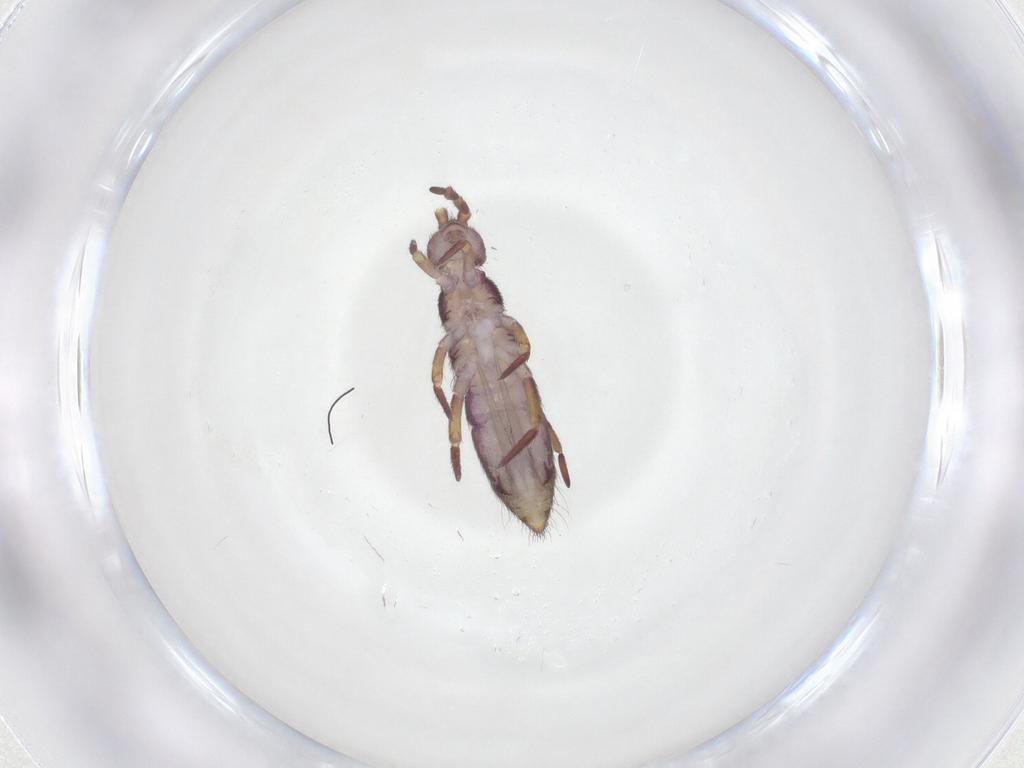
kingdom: Animalia
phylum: Arthropoda
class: Collembola
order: Entomobryomorpha
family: Isotomidae
